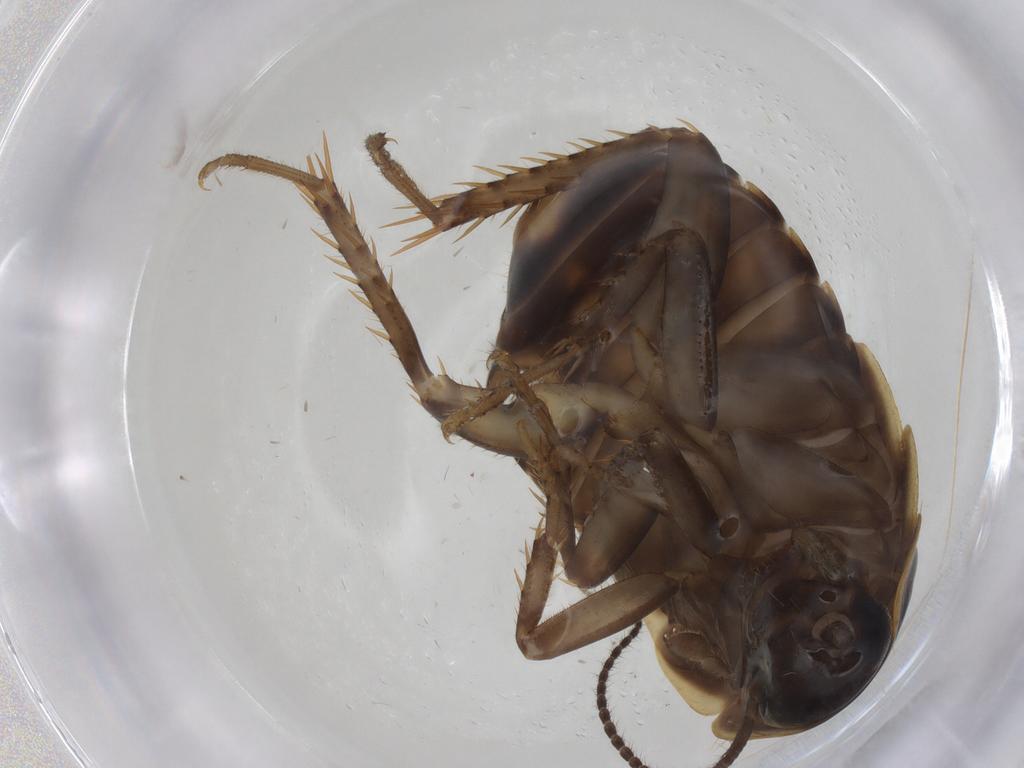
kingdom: Animalia
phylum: Arthropoda
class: Insecta
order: Blattodea
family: Ectobiidae
